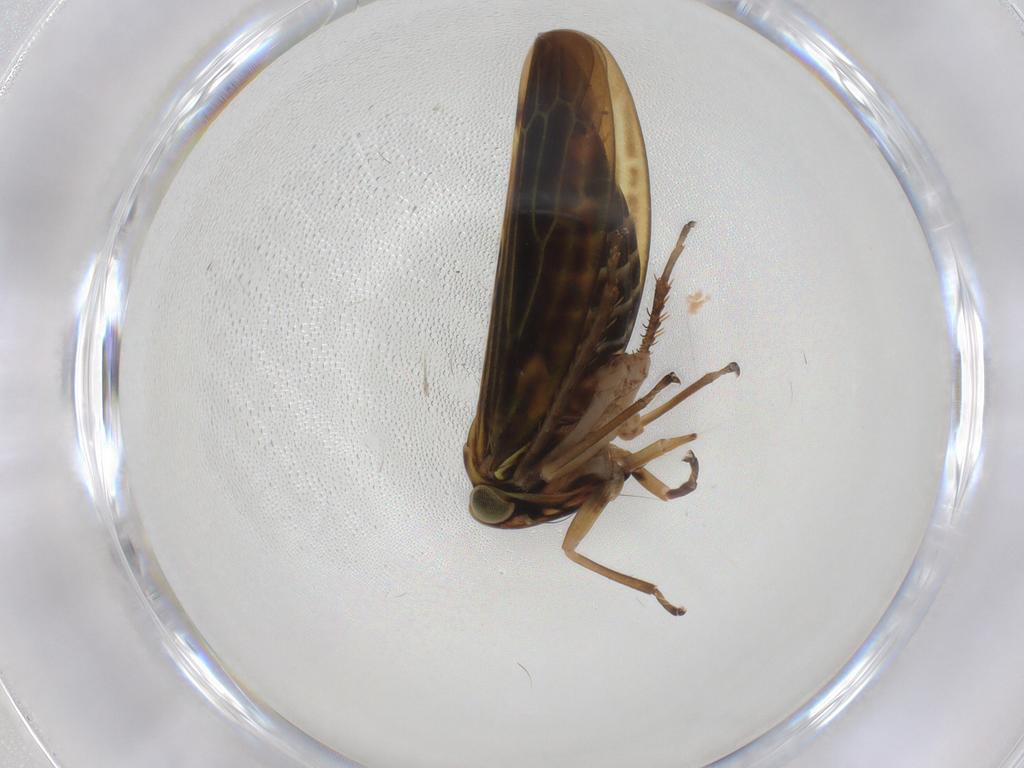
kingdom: Animalia
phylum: Arthropoda
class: Insecta
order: Hemiptera
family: Cicadellidae
